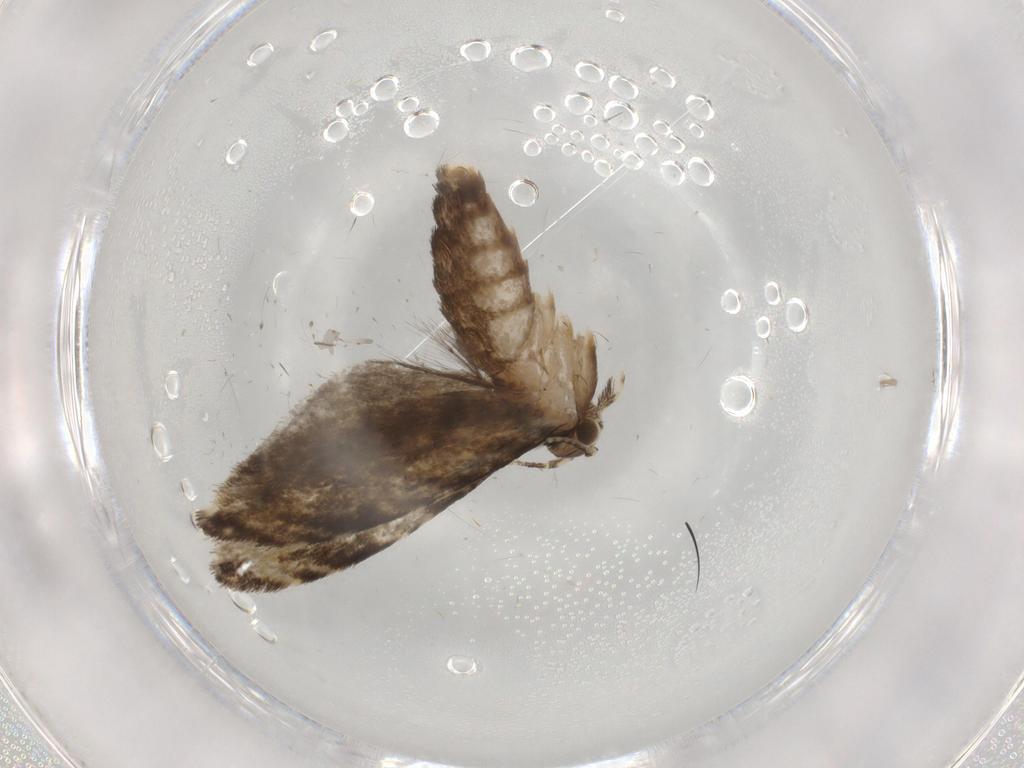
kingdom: Animalia
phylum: Arthropoda
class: Insecta
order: Lepidoptera
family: Tineidae
